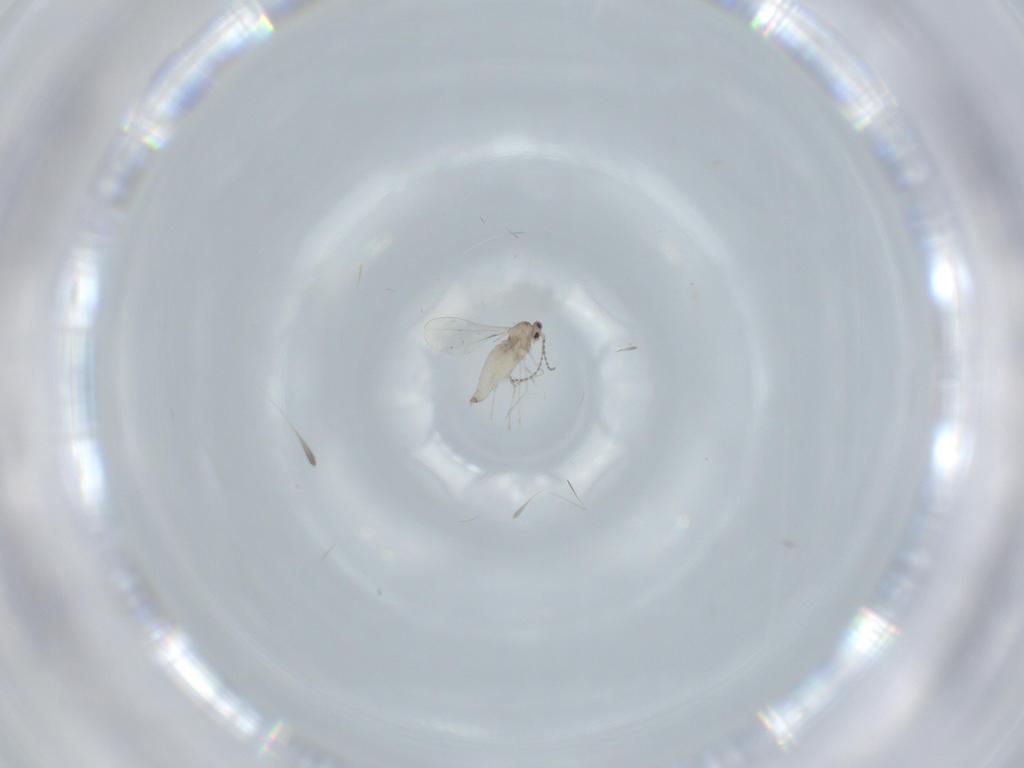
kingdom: Animalia
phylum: Arthropoda
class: Insecta
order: Diptera
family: Cecidomyiidae
